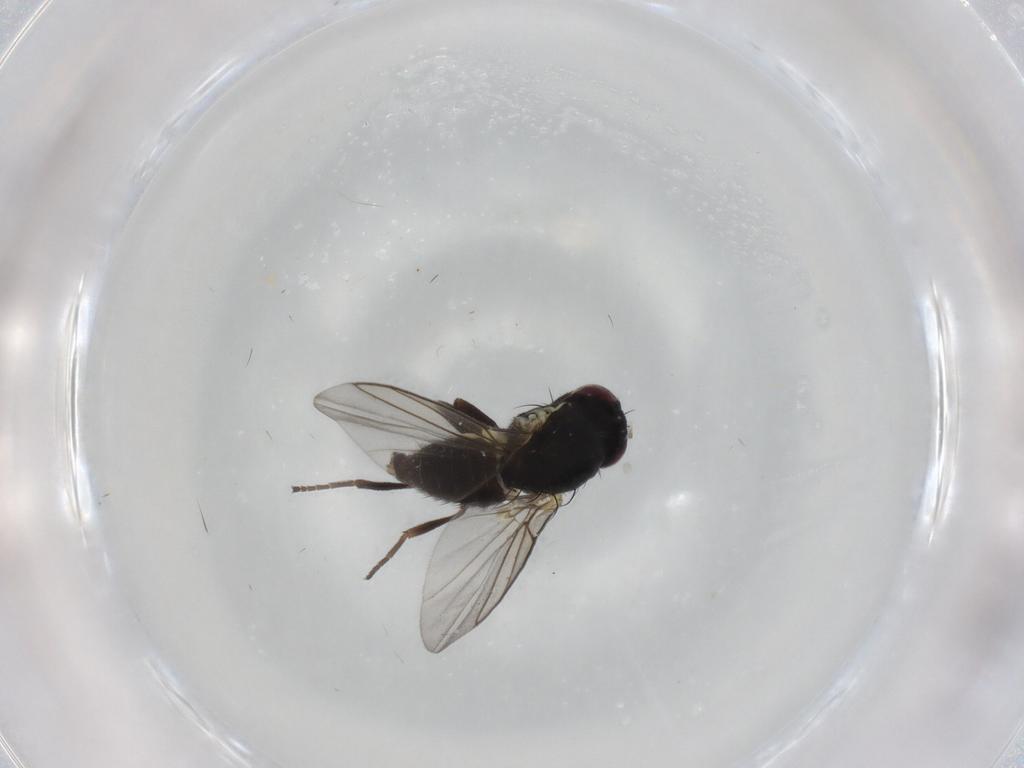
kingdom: Animalia
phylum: Arthropoda
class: Insecta
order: Diptera
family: Agromyzidae
